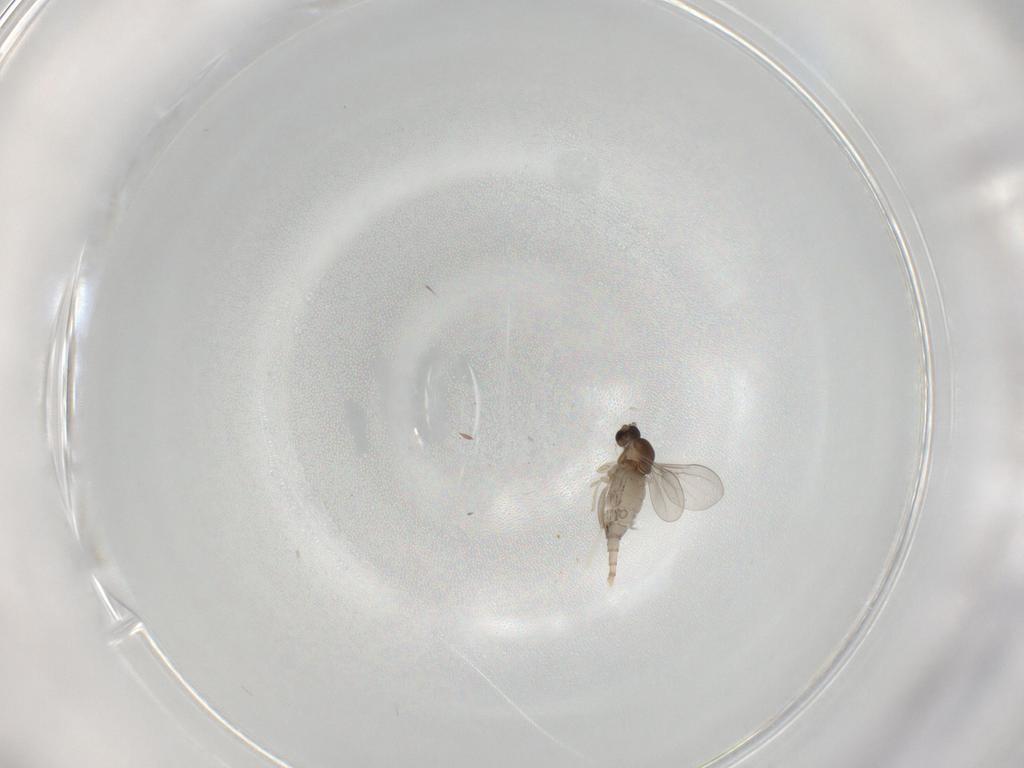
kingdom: Animalia
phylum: Arthropoda
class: Insecta
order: Diptera
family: Cecidomyiidae
